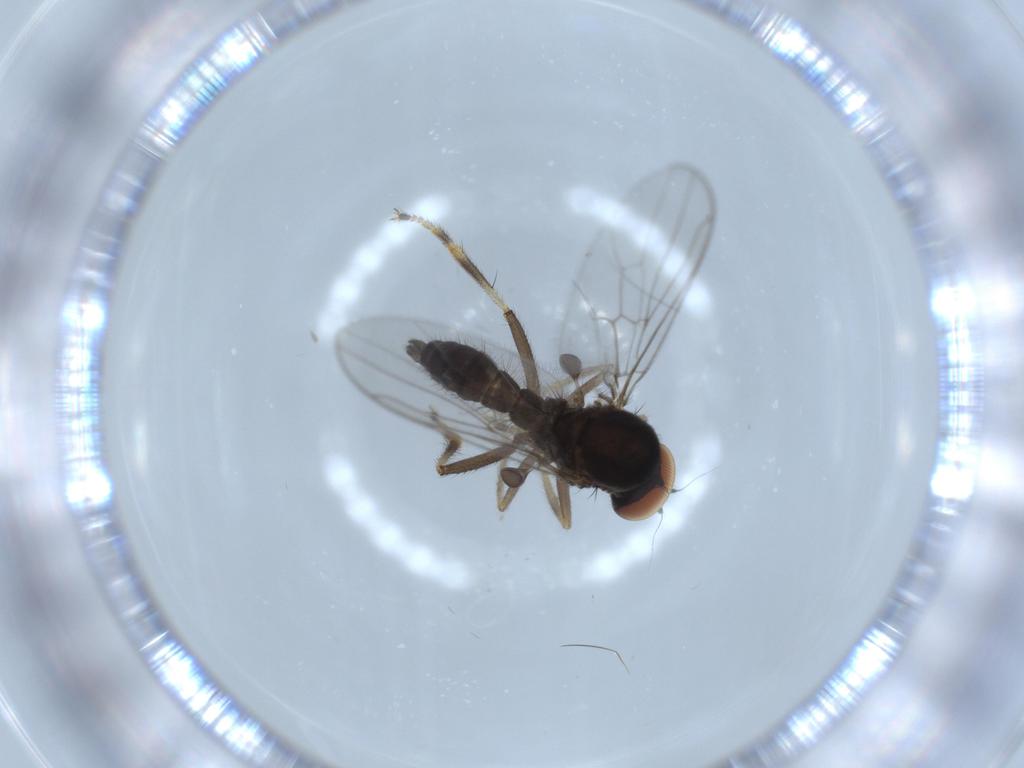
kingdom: Animalia
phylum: Arthropoda
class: Insecta
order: Diptera
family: Hybotidae
